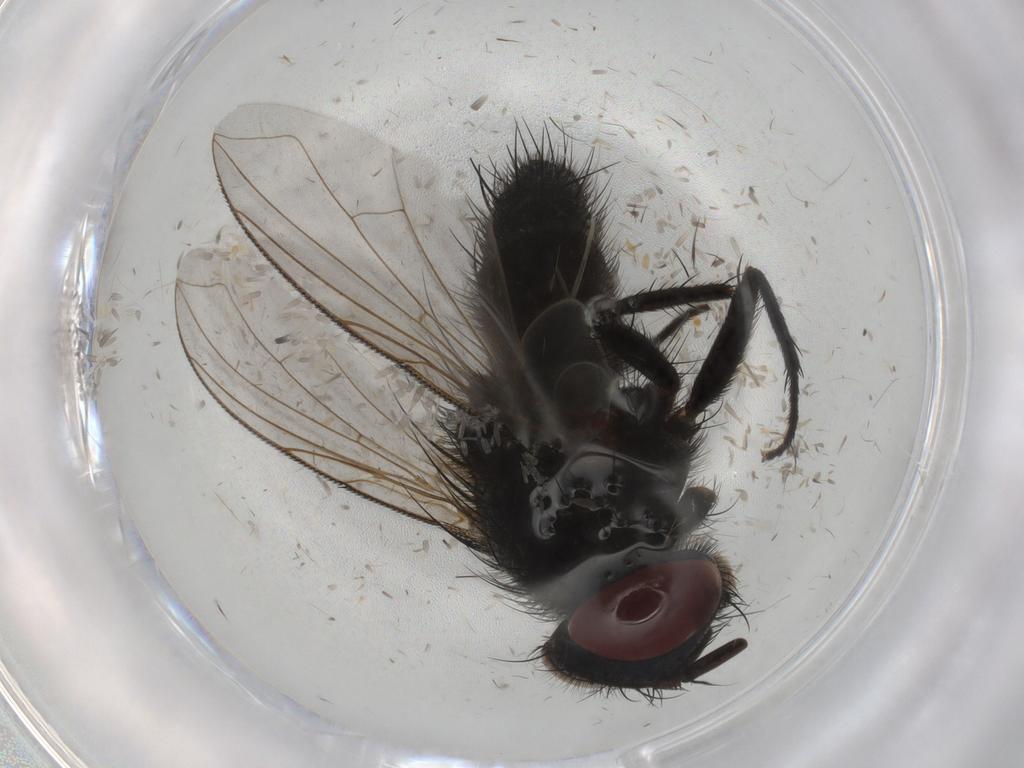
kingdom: Animalia
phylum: Arthropoda
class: Insecta
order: Diptera
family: Tachinidae
